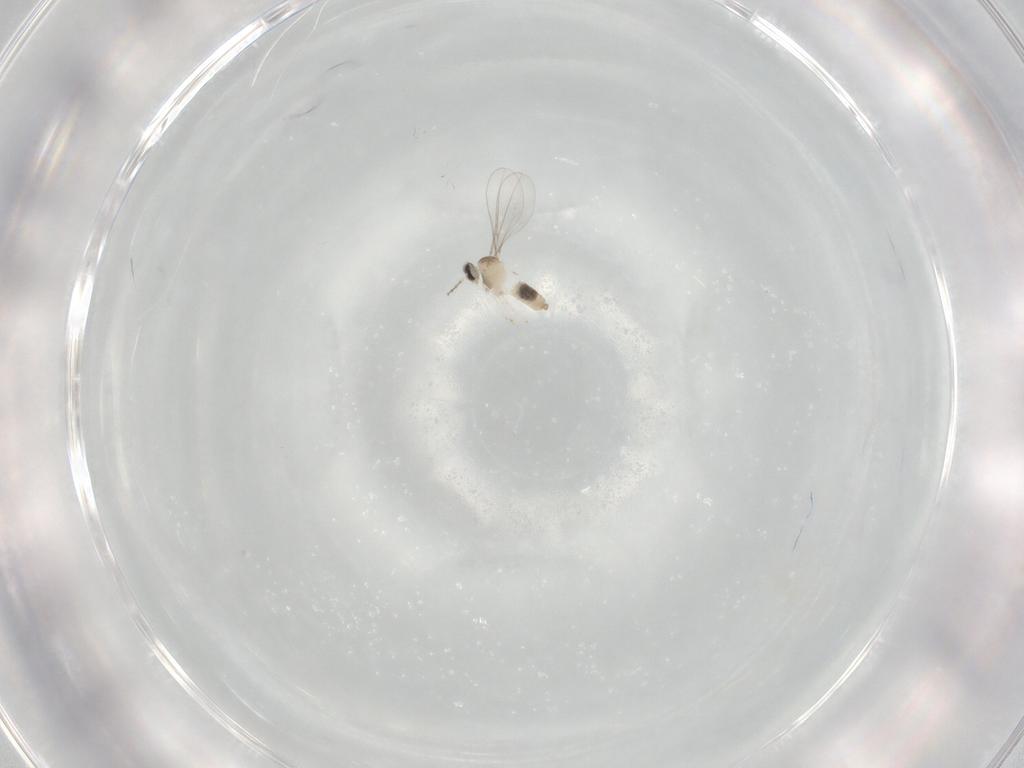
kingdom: Animalia
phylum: Arthropoda
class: Insecta
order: Diptera
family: Cecidomyiidae
